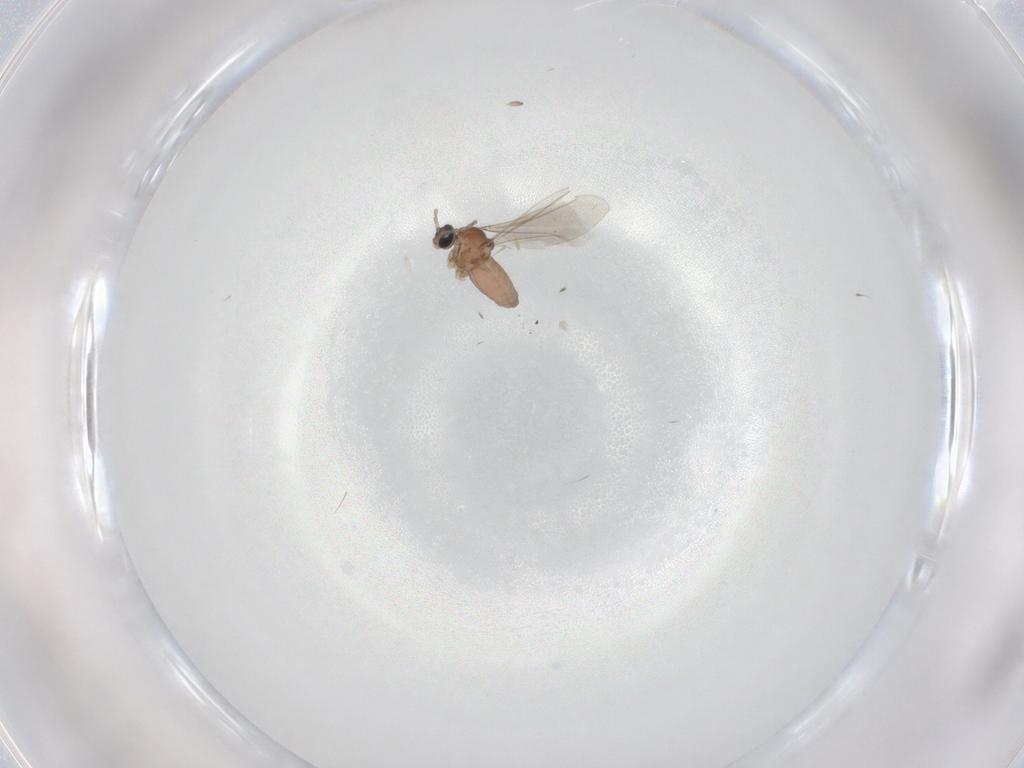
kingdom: Animalia
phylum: Arthropoda
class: Insecta
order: Diptera
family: Cecidomyiidae
